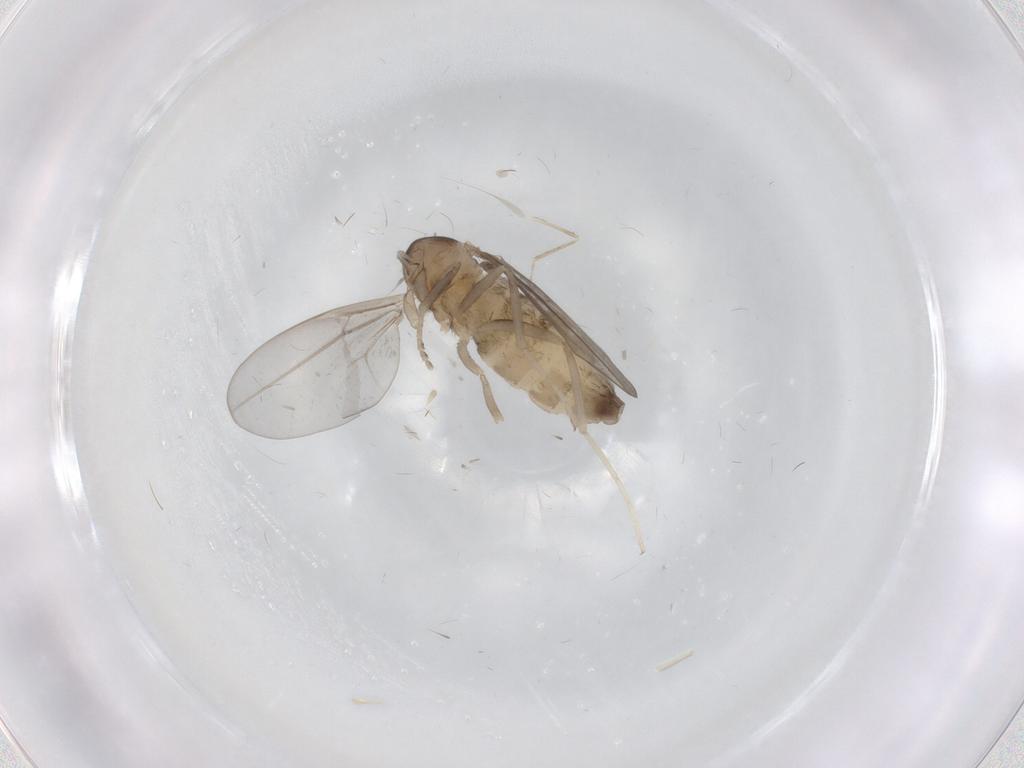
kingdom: Animalia
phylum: Arthropoda
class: Insecta
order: Diptera
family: Cecidomyiidae
